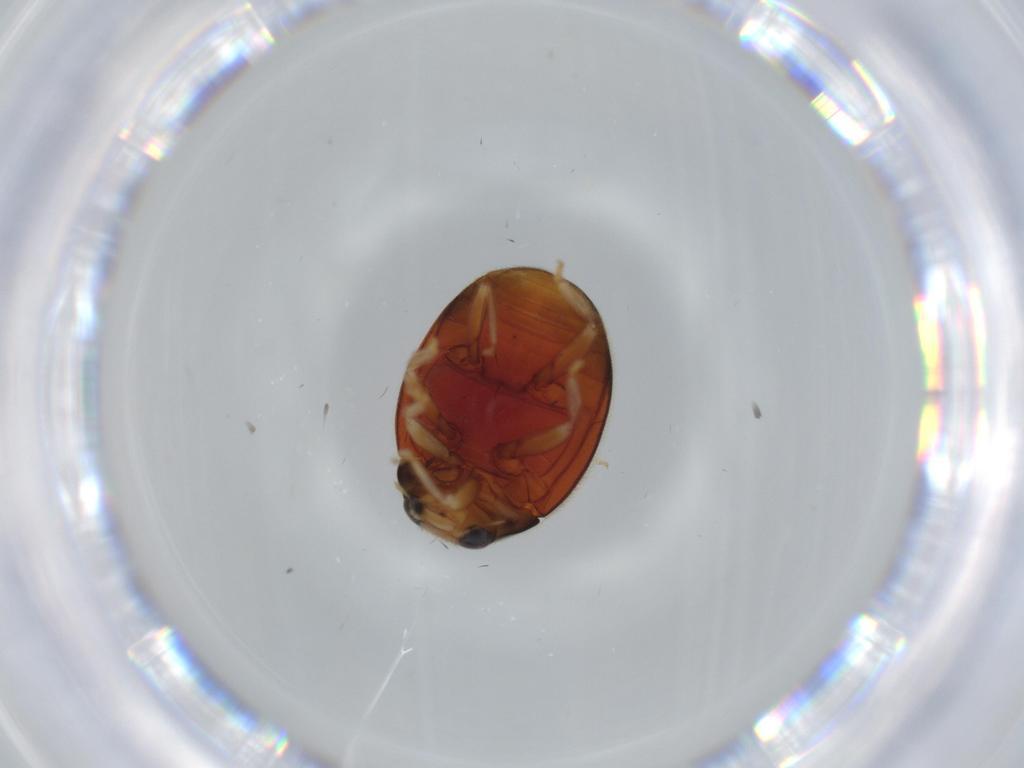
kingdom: Animalia
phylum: Arthropoda
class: Insecta
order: Coleoptera
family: Coccinellidae
